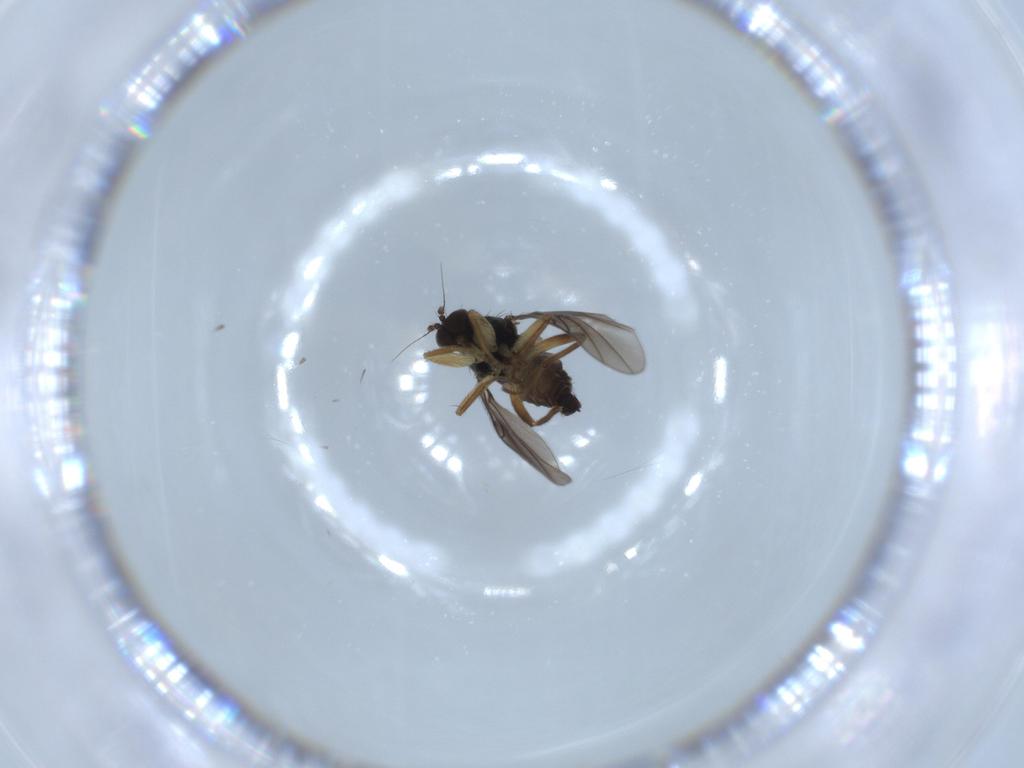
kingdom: Animalia
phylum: Arthropoda
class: Insecta
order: Diptera
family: Hybotidae
